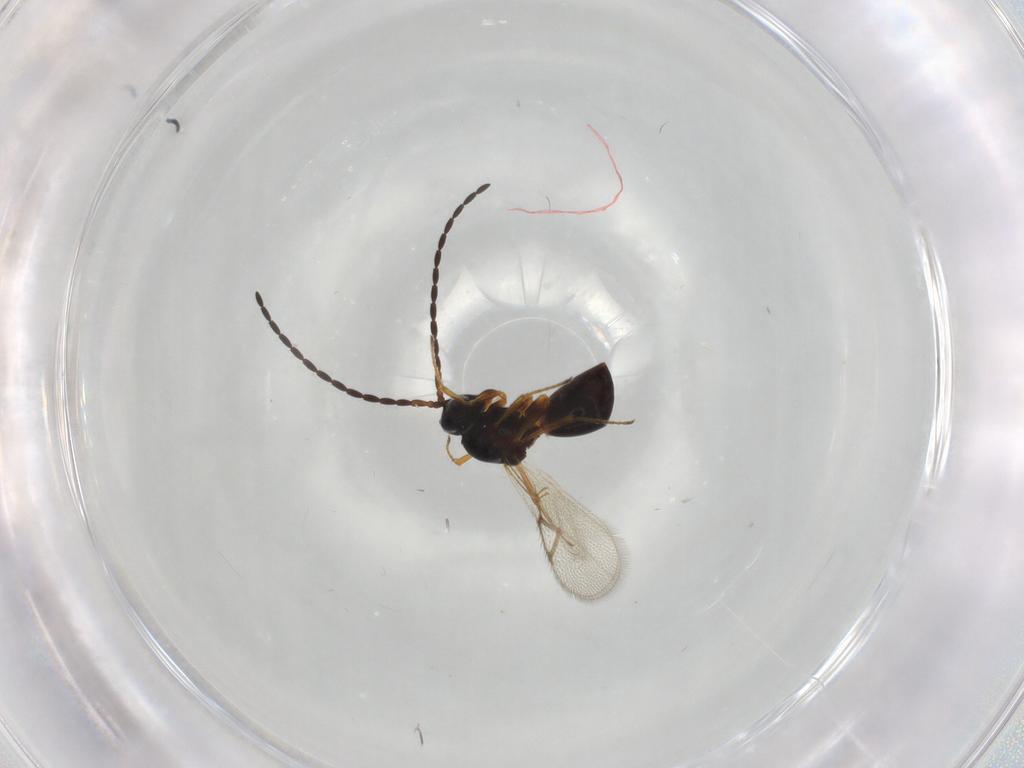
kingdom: Animalia
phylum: Arthropoda
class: Insecta
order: Hymenoptera
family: Figitidae
